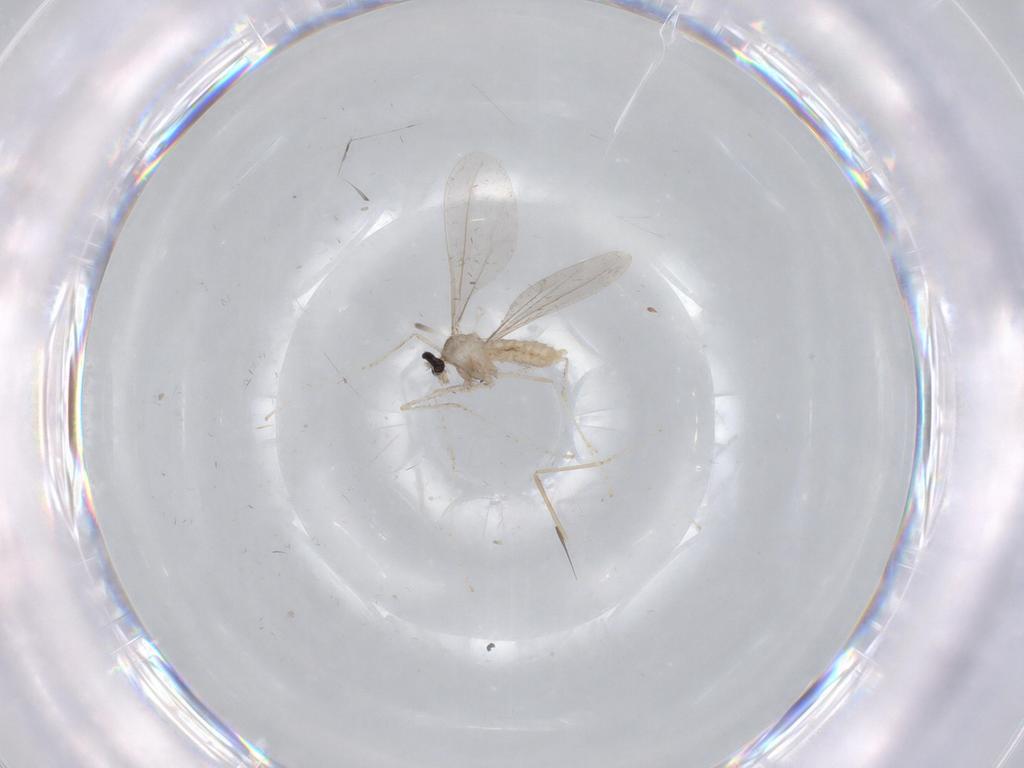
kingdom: Animalia
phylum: Arthropoda
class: Insecta
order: Diptera
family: Cecidomyiidae
